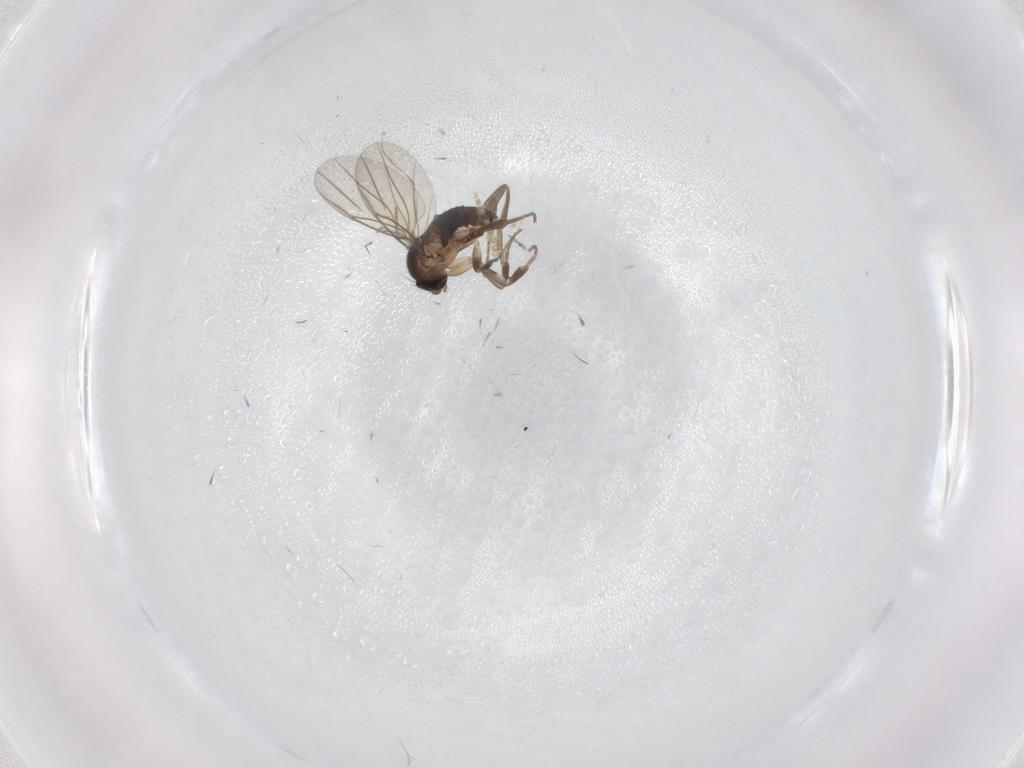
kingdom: Animalia
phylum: Arthropoda
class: Insecta
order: Diptera
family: Phoridae
